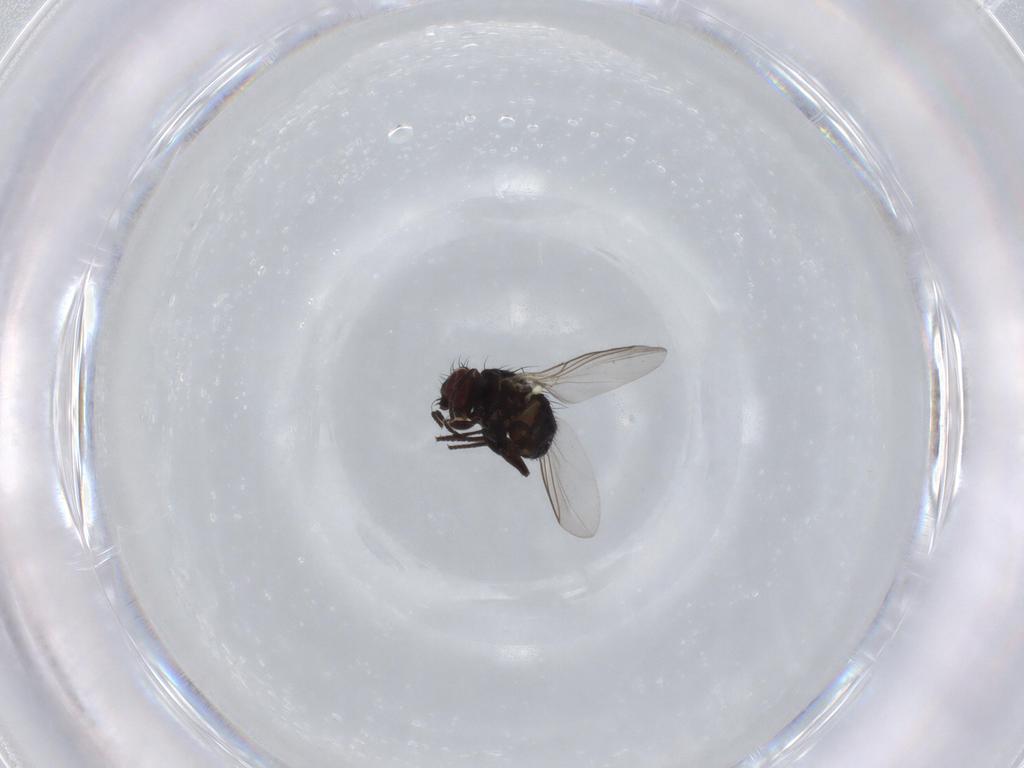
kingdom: Animalia
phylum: Arthropoda
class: Insecta
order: Diptera
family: Dolichopodidae
